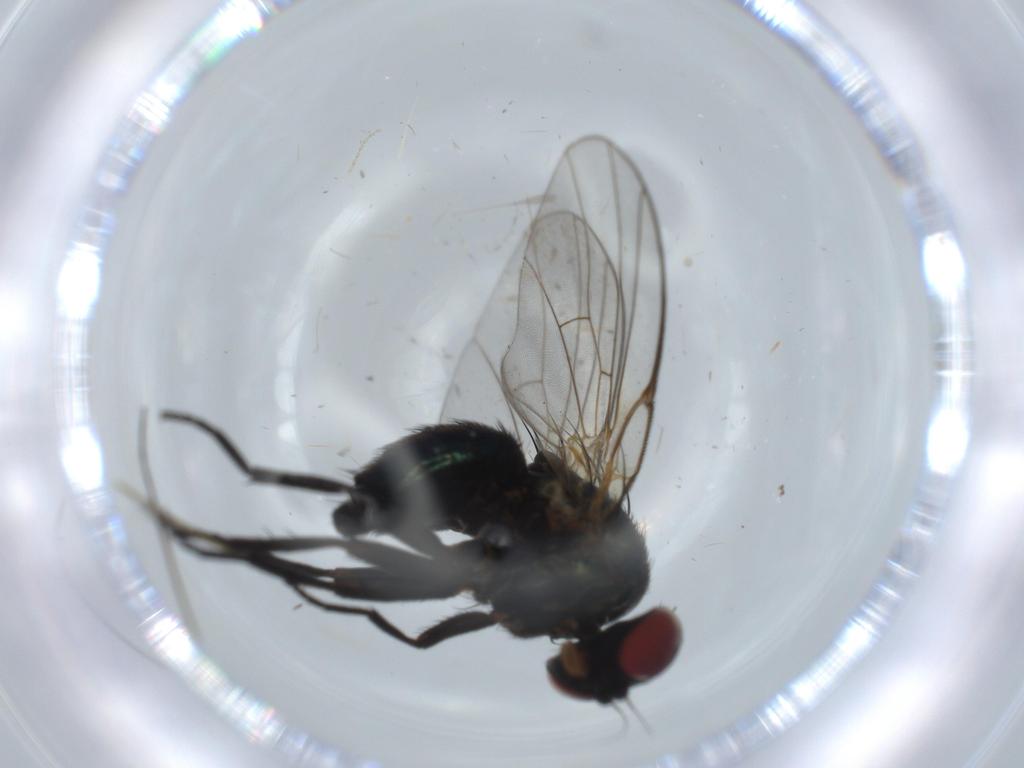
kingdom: Animalia
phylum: Arthropoda
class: Insecta
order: Diptera
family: Agromyzidae
